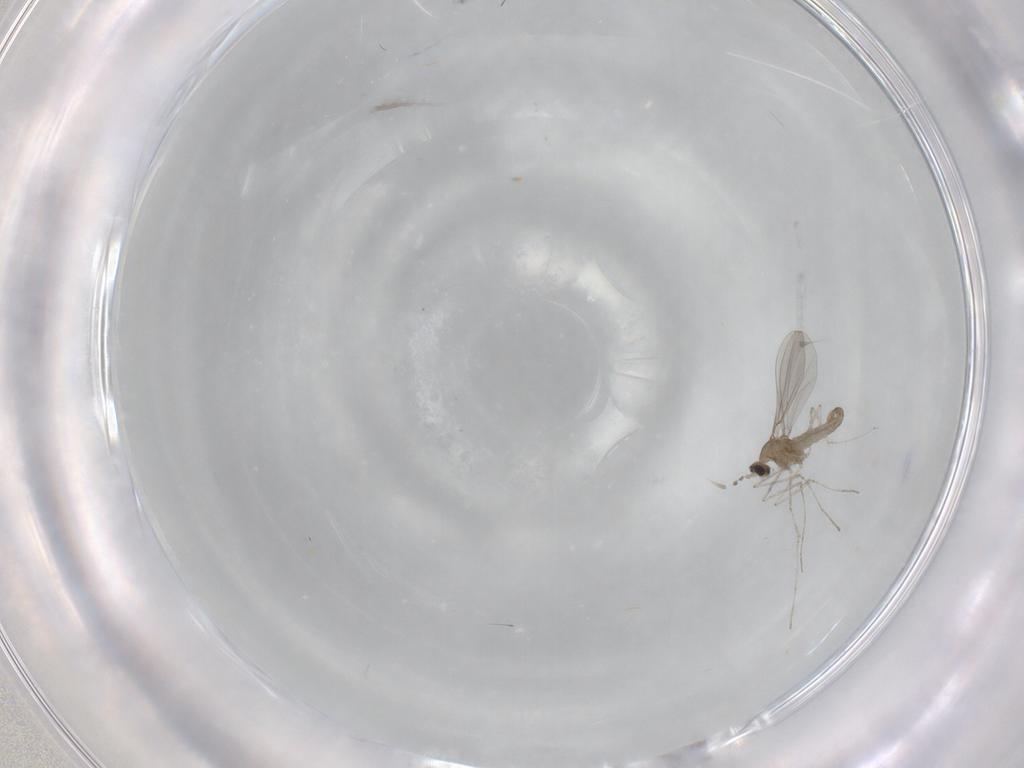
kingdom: Animalia
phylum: Arthropoda
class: Insecta
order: Diptera
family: Cecidomyiidae
